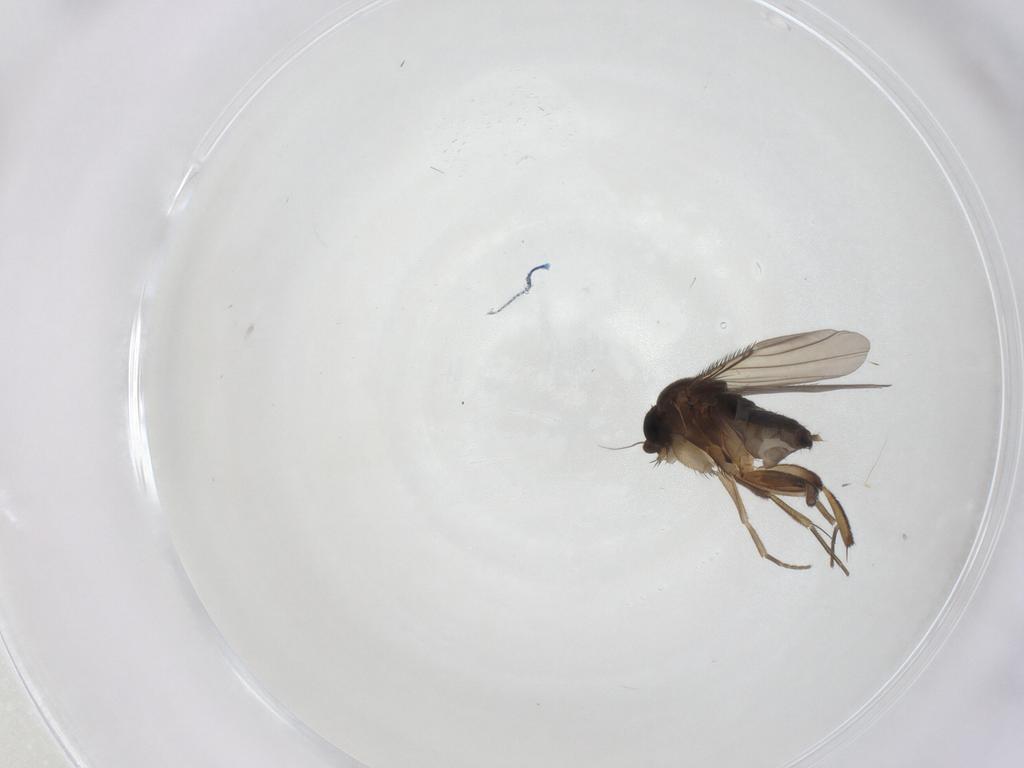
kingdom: Animalia
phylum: Arthropoda
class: Insecta
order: Diptera
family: Phoridae
